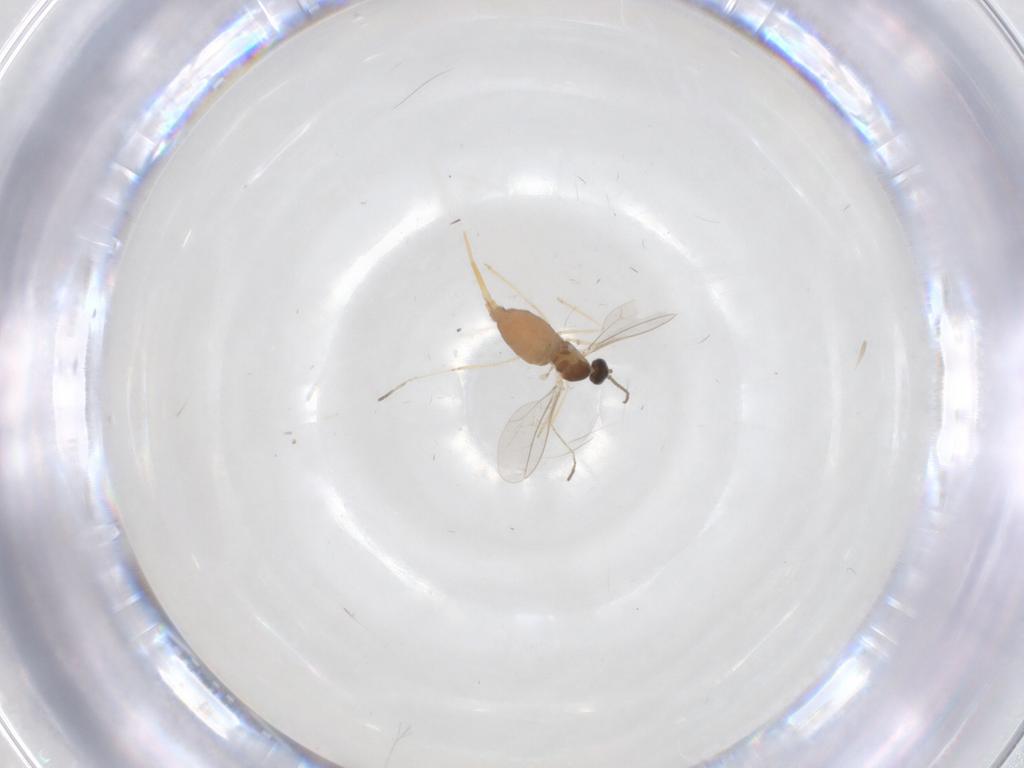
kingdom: Animalia
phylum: Arthropoda
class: Insecta
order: Diptera
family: Cecidomyiidae
